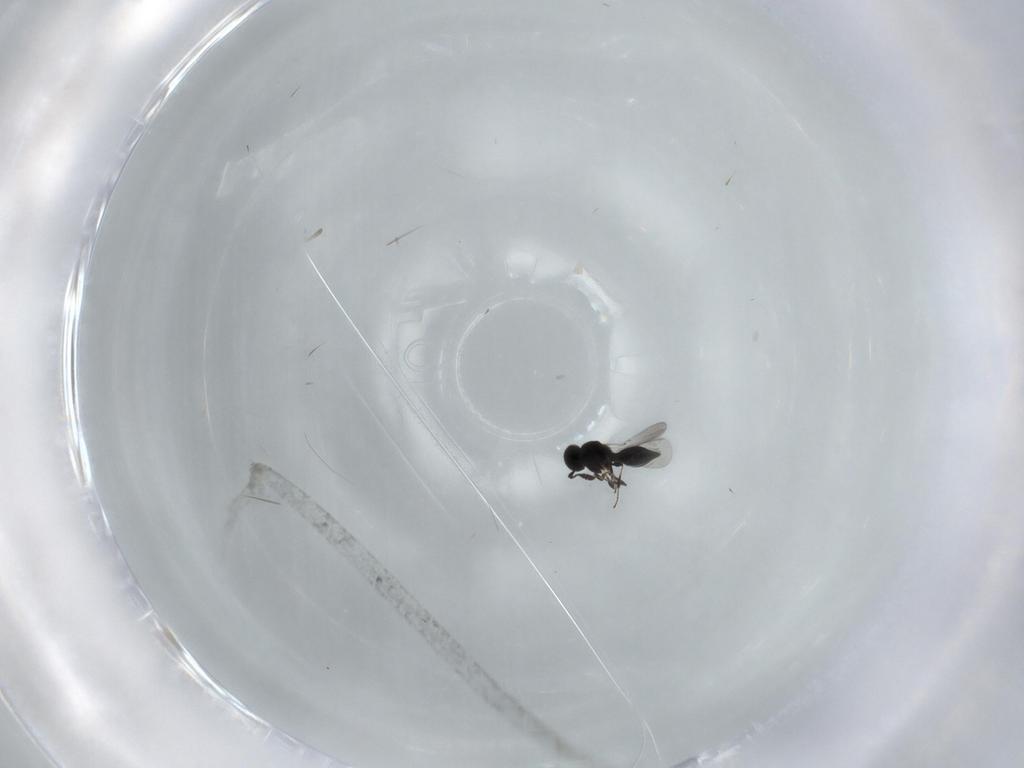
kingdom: Animalia
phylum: Arthropoda
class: Insecta
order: Hymenoptera
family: Platygastridae
